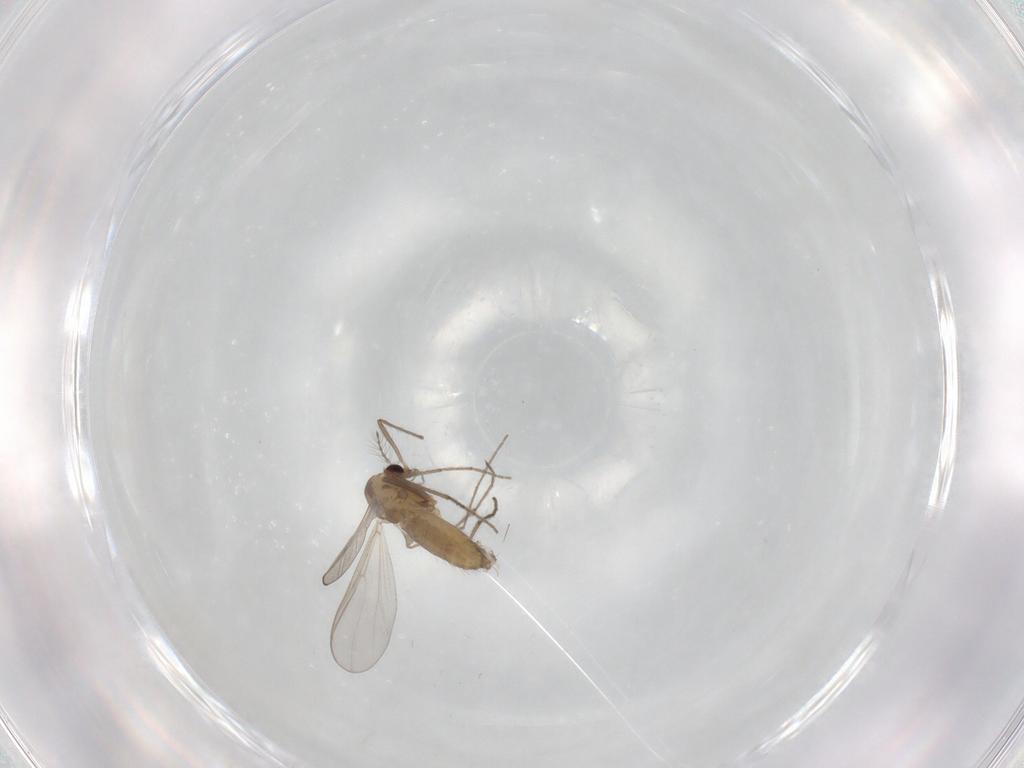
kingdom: Animalia
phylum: Arthropoda
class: Insecta
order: Diptera
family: Chironomidae
